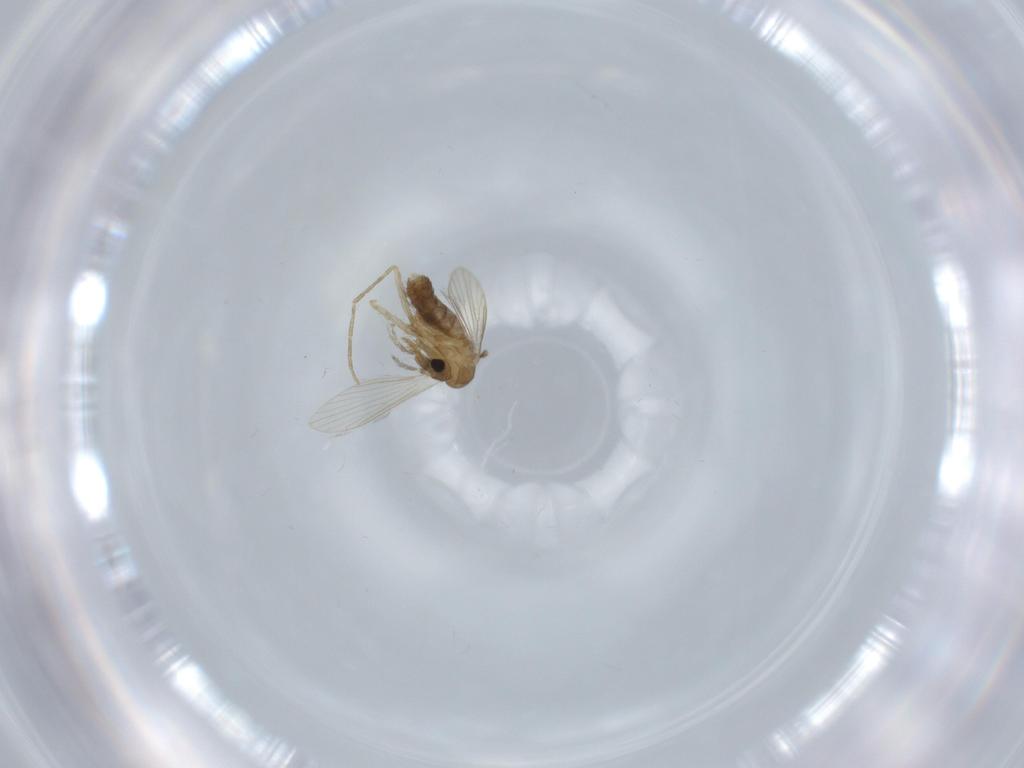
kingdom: Animalia
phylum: Arthropoda
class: Insecta
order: Diptera
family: Psychodidae
